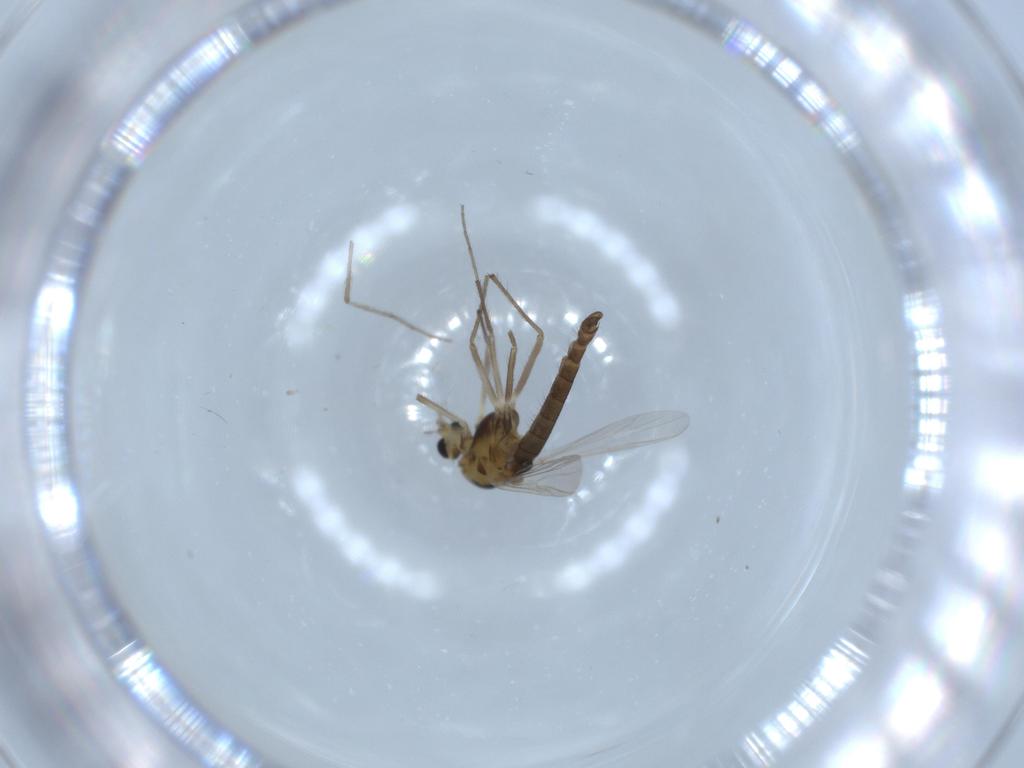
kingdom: Animalia
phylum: Arthropoda
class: Insecta
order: Diptera
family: Chironomidae
